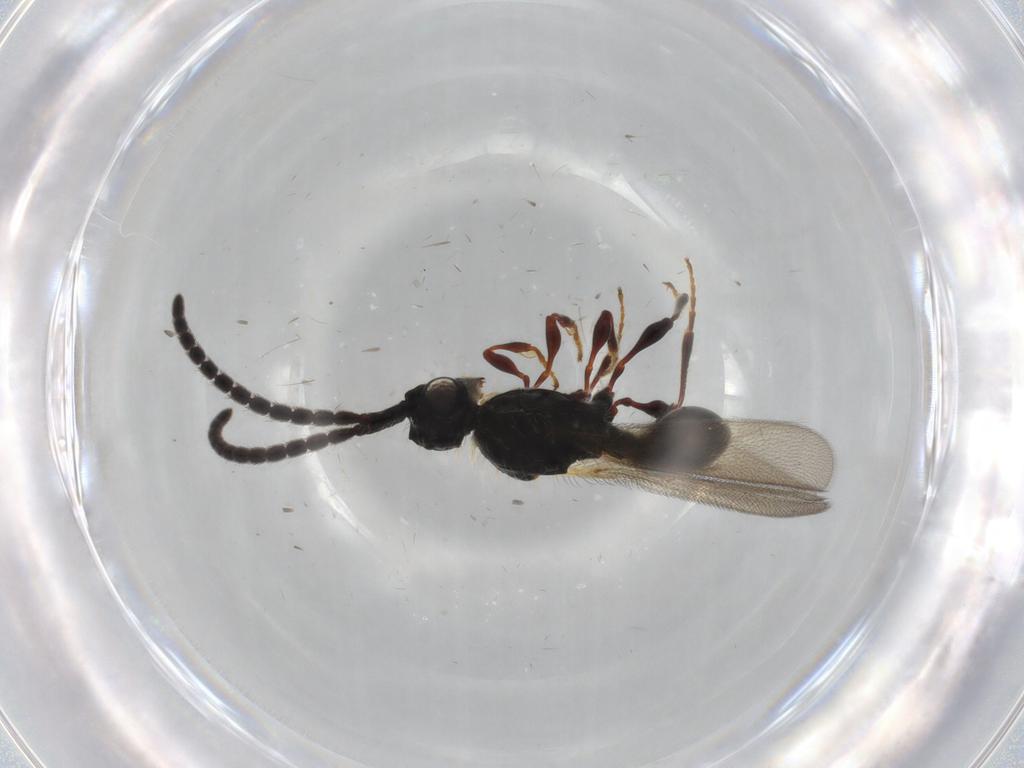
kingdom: Animalia
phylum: Arthropoda
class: Insecta
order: Hymenoptera
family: Diapriidae
